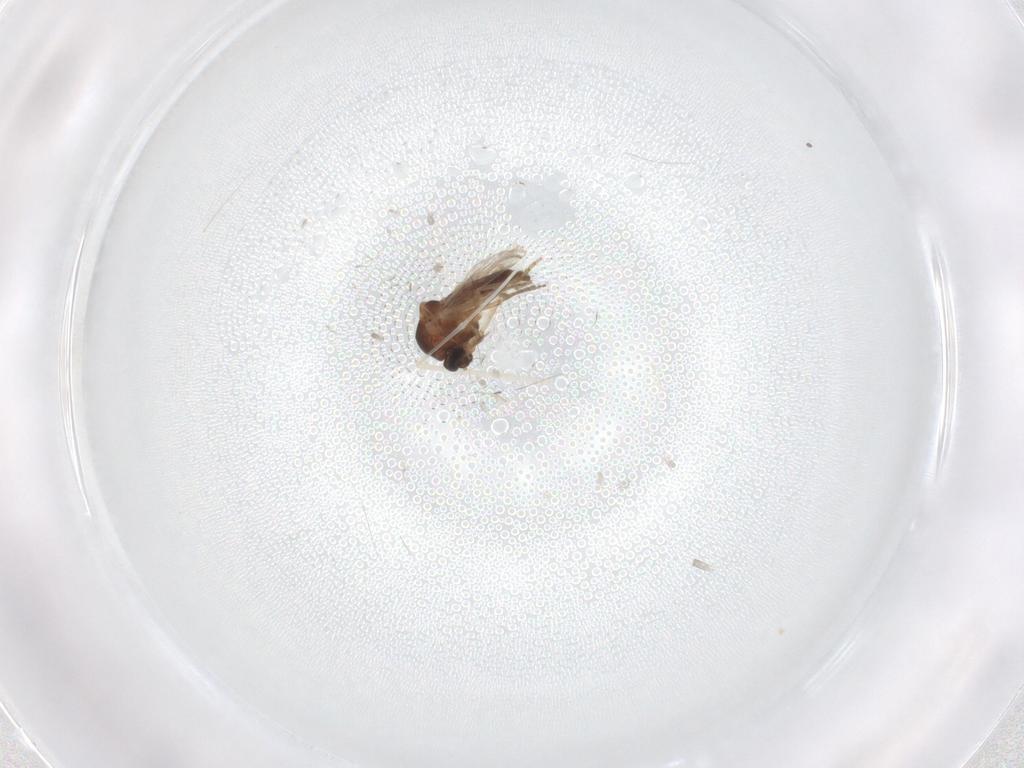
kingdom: Animalia
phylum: Arthropoda
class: Insecta
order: Diptera
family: Ceratopogonidae
